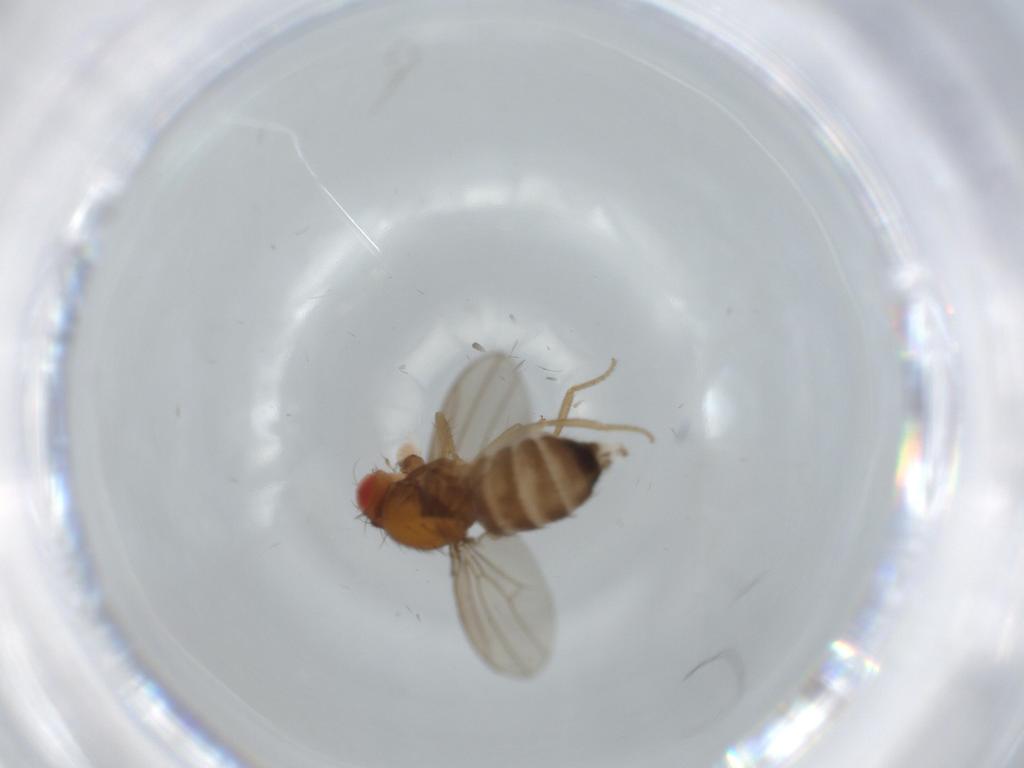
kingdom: Animalia
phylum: Arthropoda
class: Insecta
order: Diptera
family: Drosophilidae
